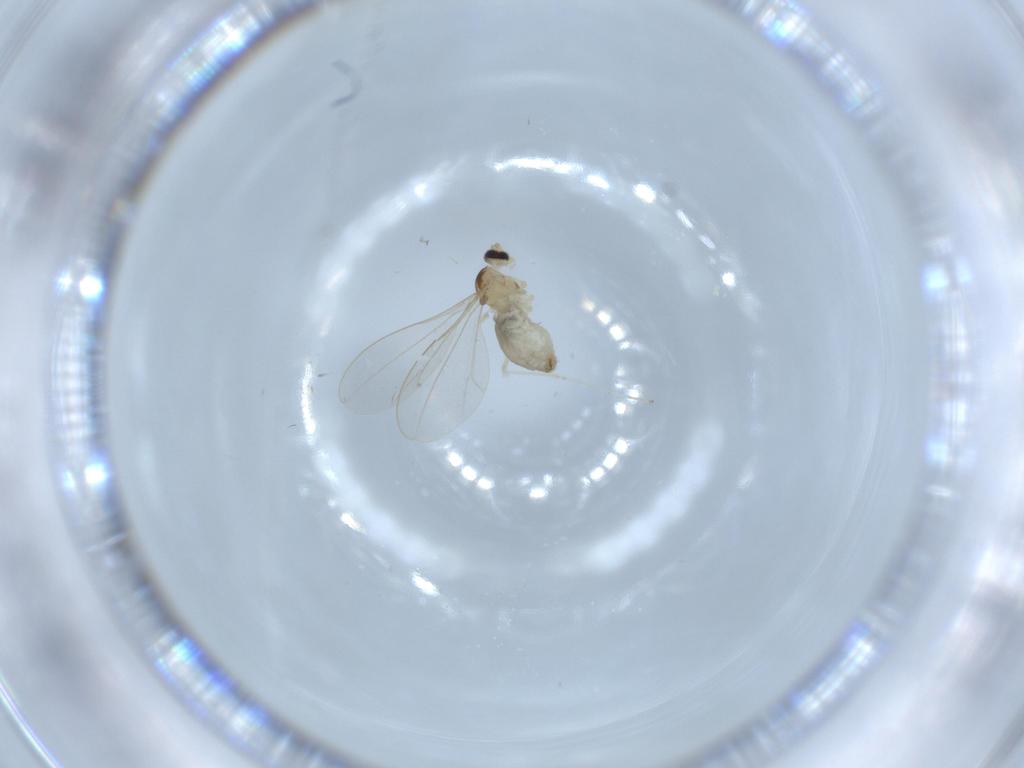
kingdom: Animalia
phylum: Arthropoda
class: Insecta
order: Diptera
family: Cecidomyiidae
